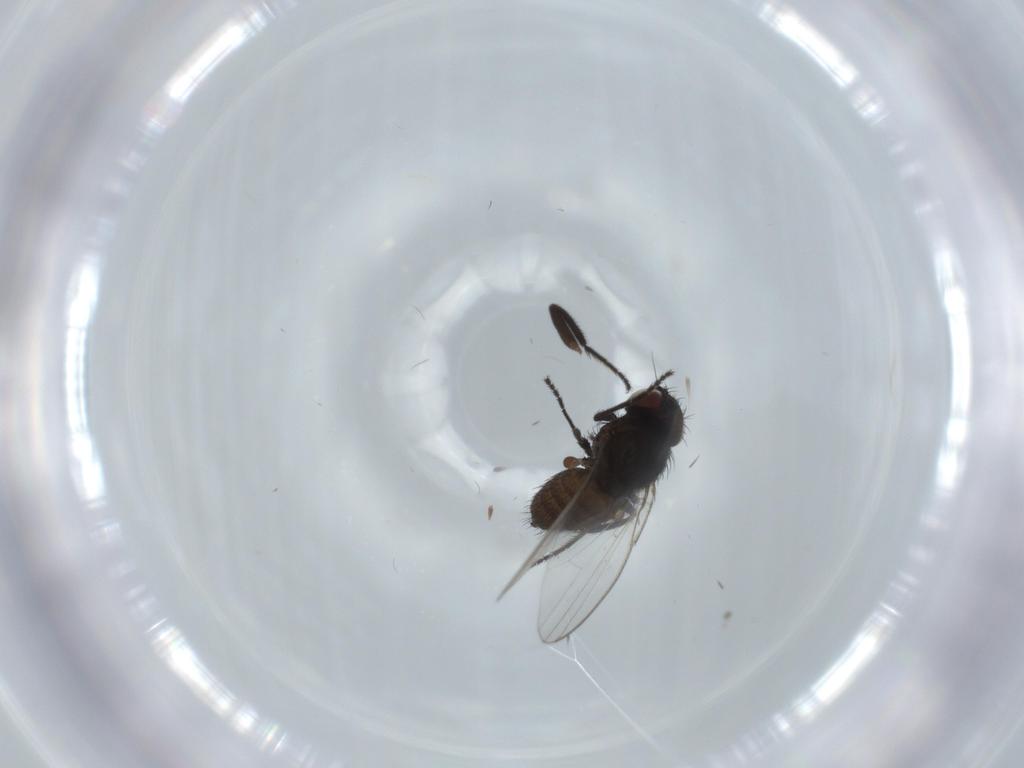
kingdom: Animalia
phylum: Arthropoda
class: Insecta
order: Diptera
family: Milichiidae
